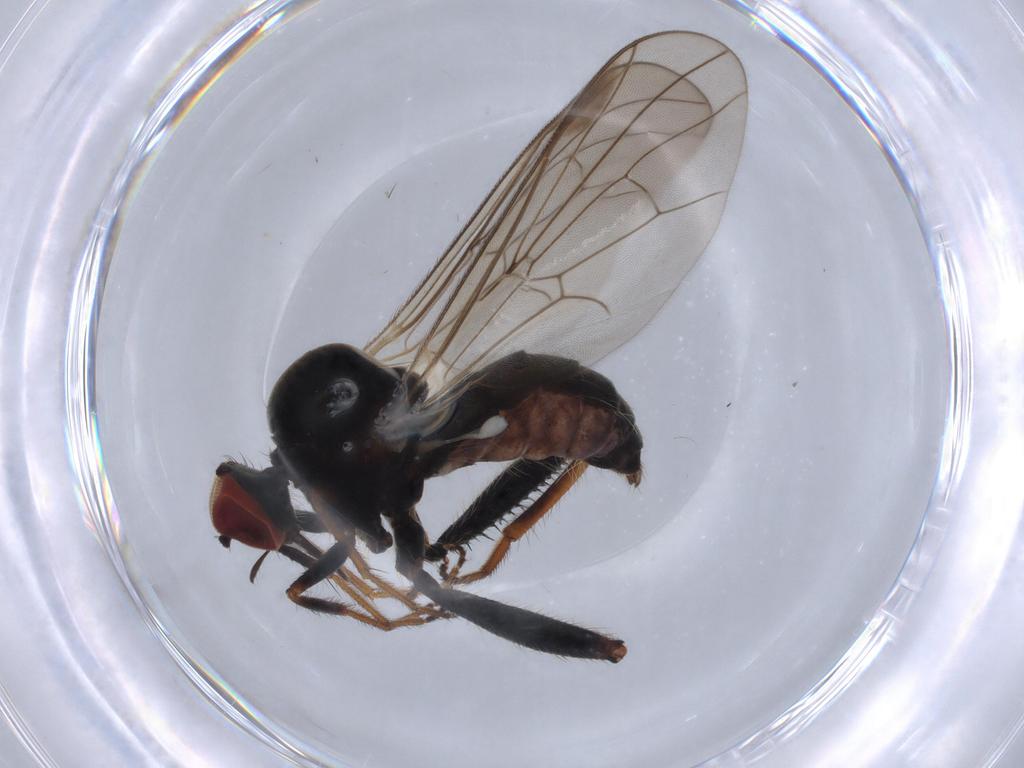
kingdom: Animalia
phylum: Arthropoda
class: Insecta
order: Diptera
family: Hybotidae
